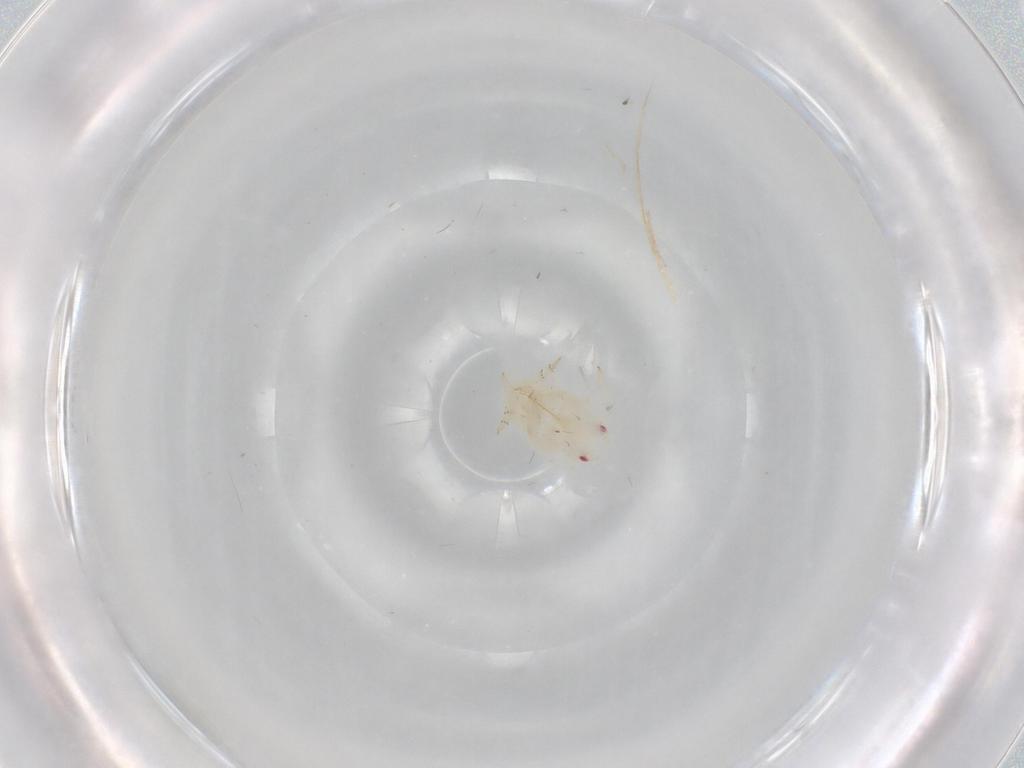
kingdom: Animalia
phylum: Arthropoda
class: Insecta
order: Hemiptera
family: Flatidae
